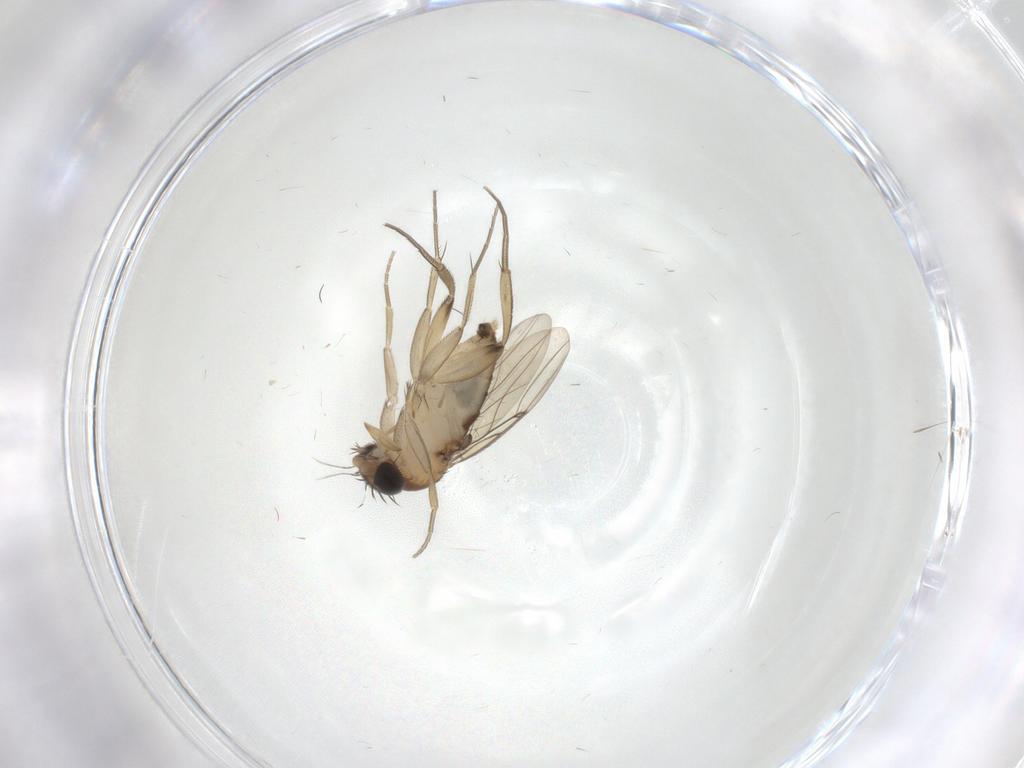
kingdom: Animalia
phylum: Arthropoda
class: Insecta
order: Diptera
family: Phoridae
